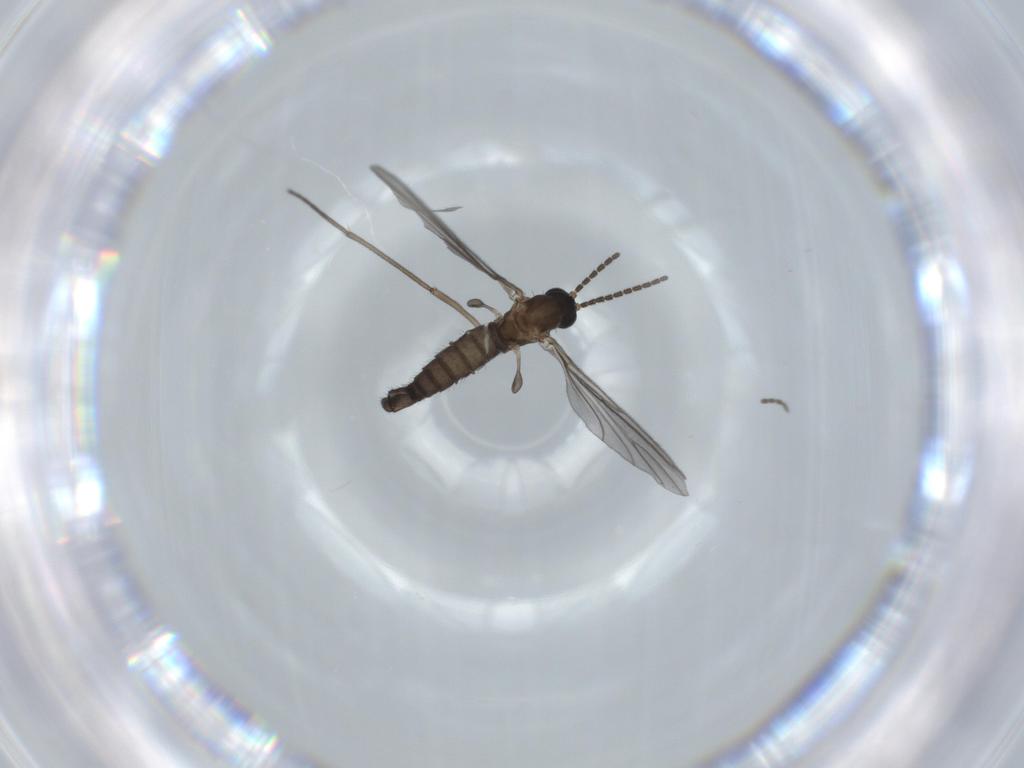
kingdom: Animalia
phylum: Arthropoda
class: Insecta
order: Diptera
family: Sciaridae
